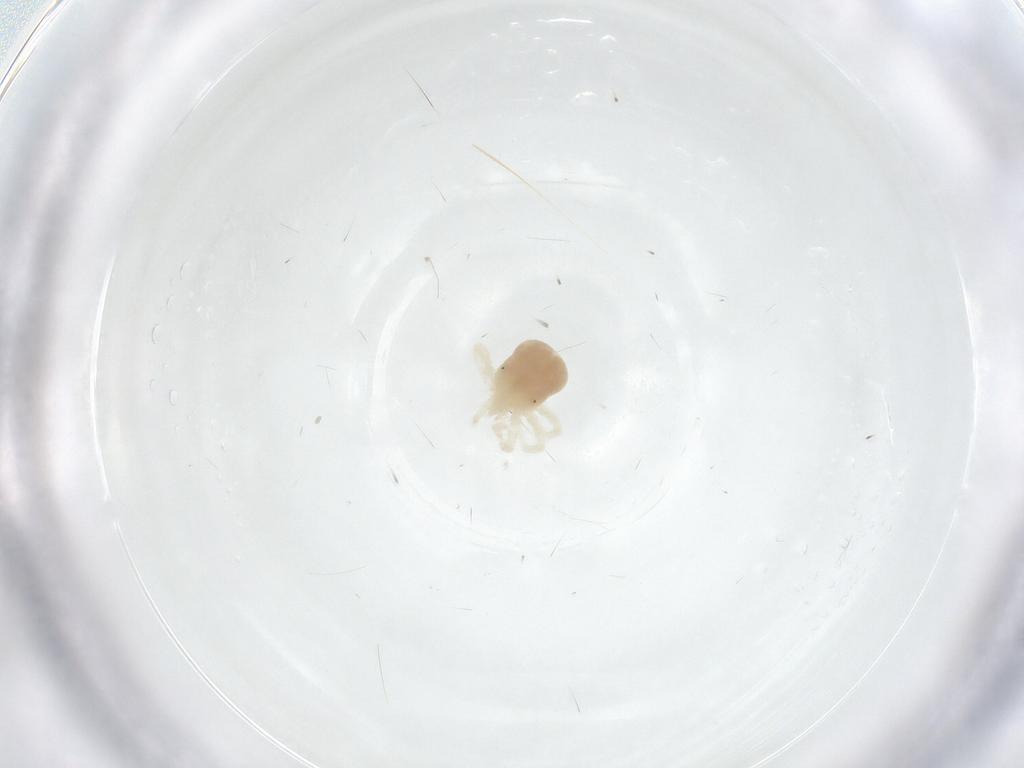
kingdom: Animalia
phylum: Arthropoda
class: Arachnida
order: Trombidiformes
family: Anystidae
